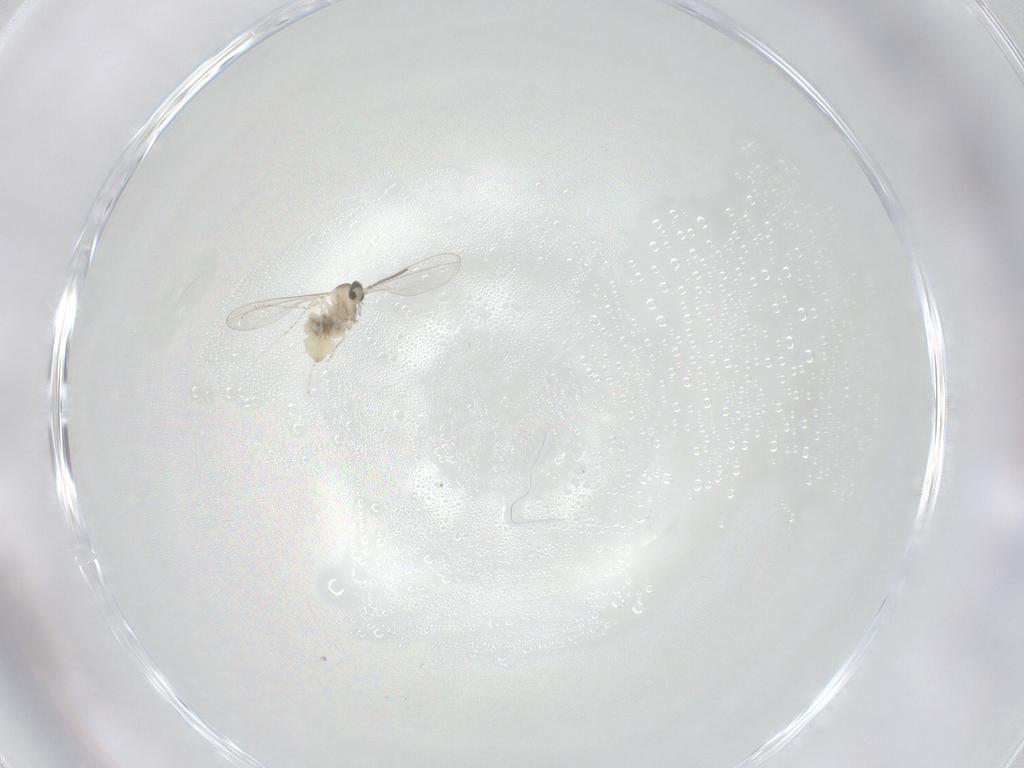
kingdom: Animalia
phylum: Arthropoda
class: Insecta
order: Diptera
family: Cecidomyiidae
